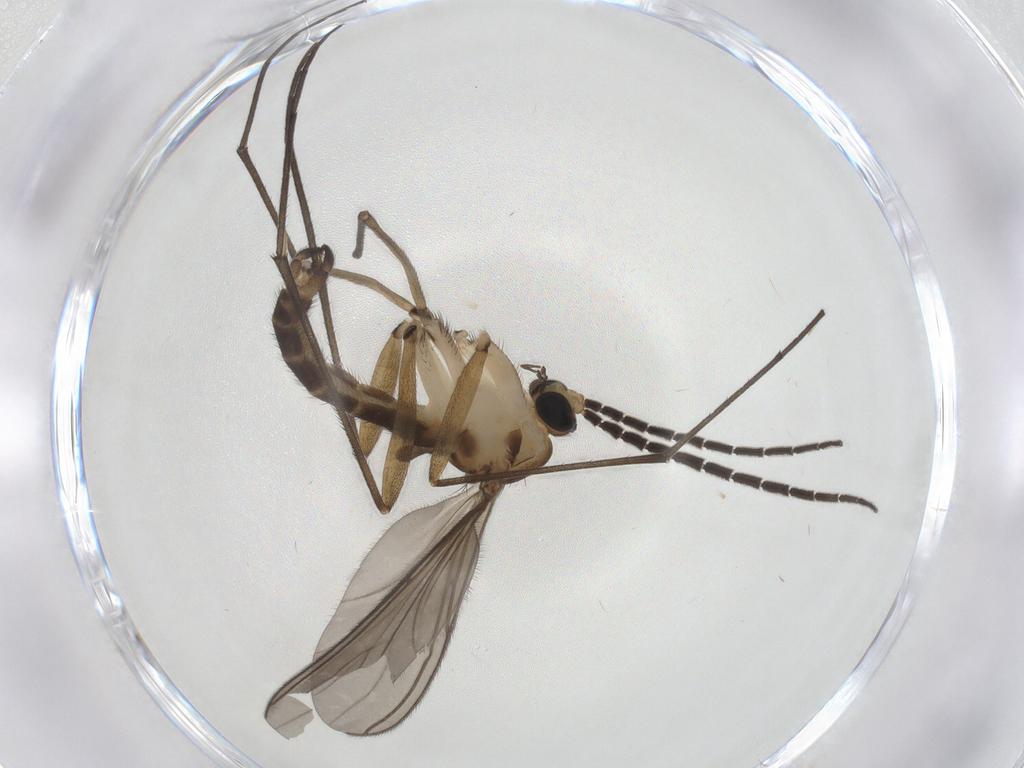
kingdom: Animalia
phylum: Arthropoda
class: Insecta
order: Diptera
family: Sciaridae
